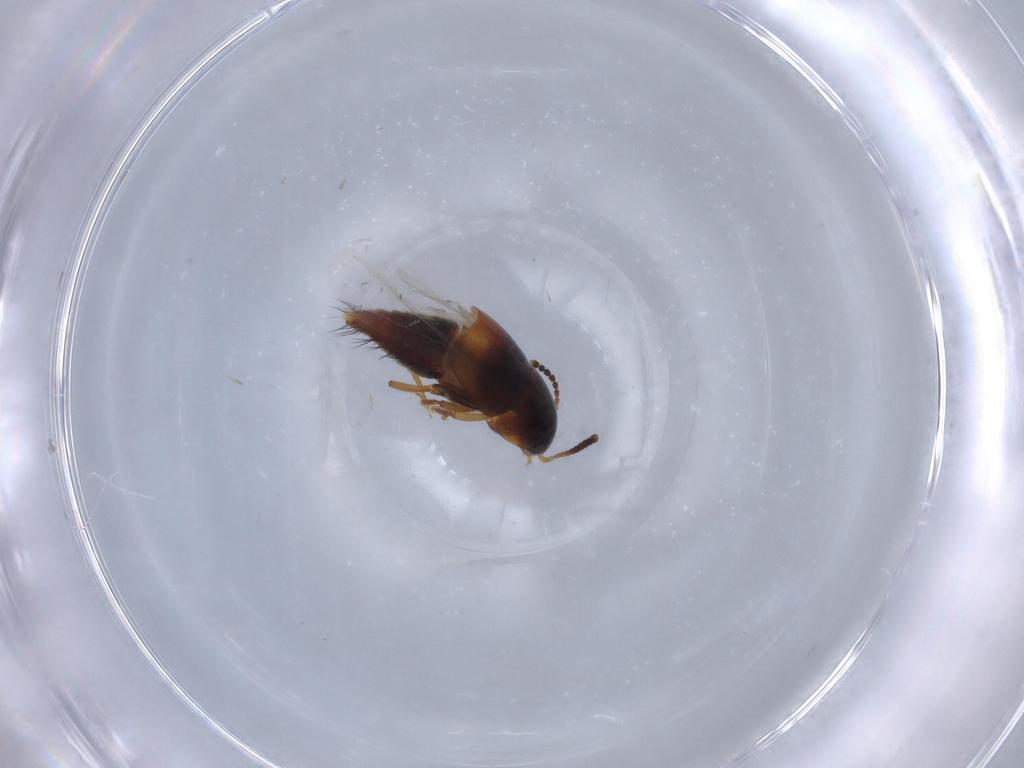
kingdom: Animalia
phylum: Arthropoda
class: Insecta
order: Coleoptera
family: Staphylinidae
